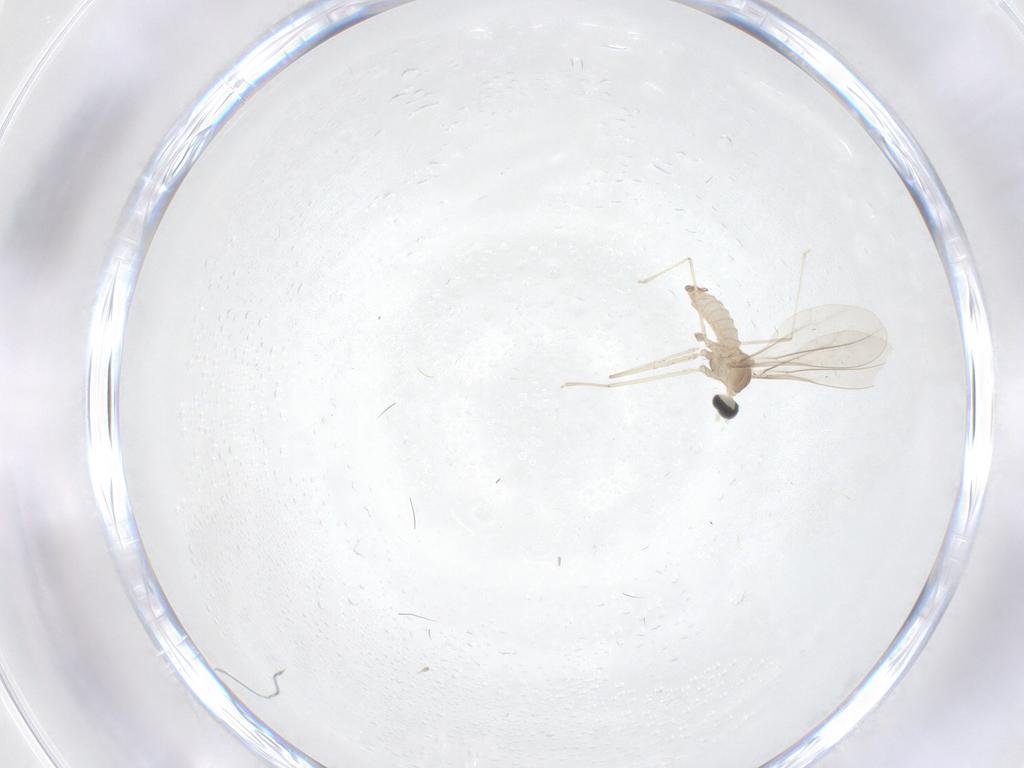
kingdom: Animalia
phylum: Arthropoda
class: Insecta
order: Diptera
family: Cecidomyiidae
